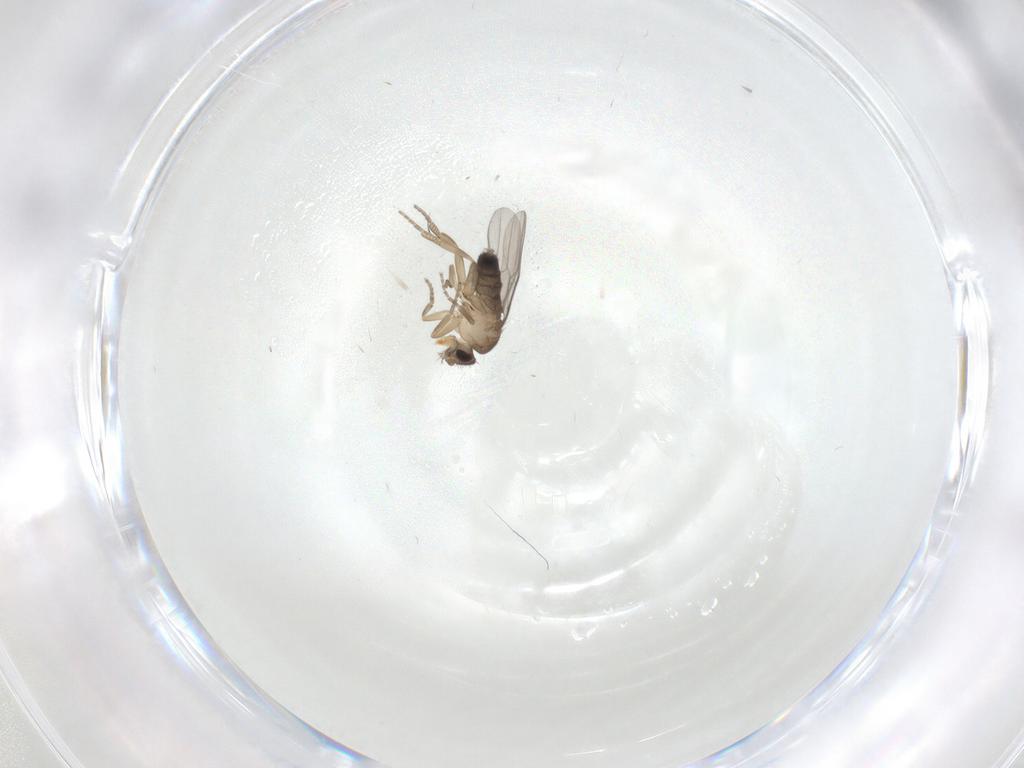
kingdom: Animalia
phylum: Arthropoda
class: Insecta
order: Diptera
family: Phoridae
